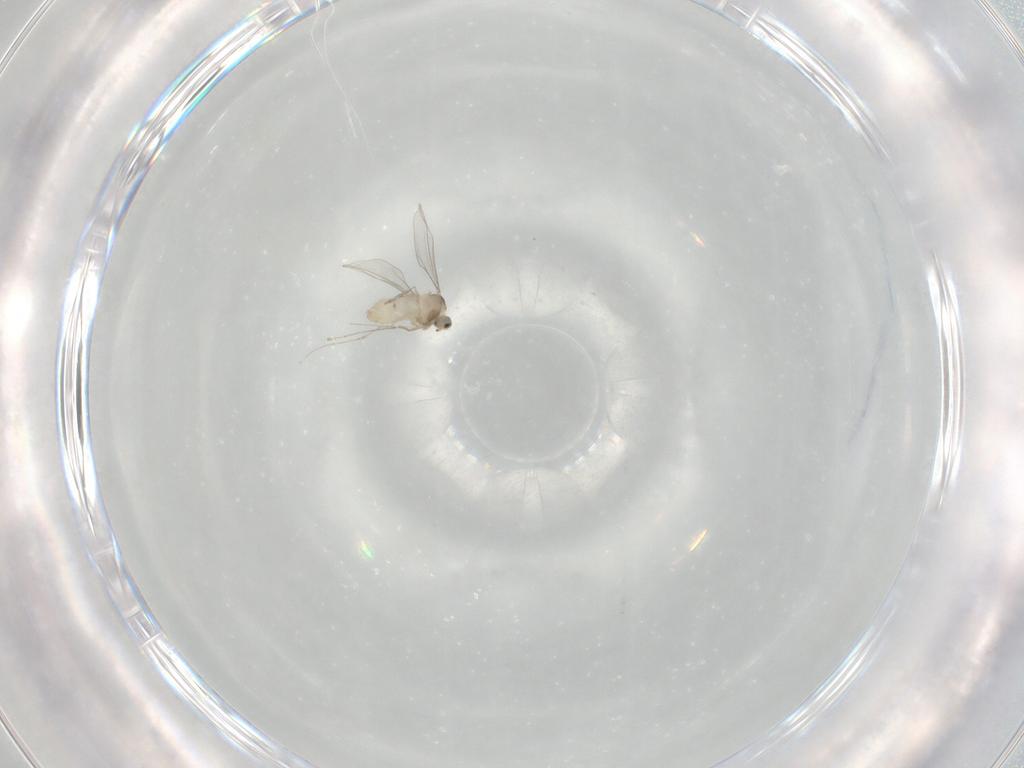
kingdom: Animalia
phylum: Arthropoda
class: Insecta
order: Diptera
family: Cecidomyiidae
